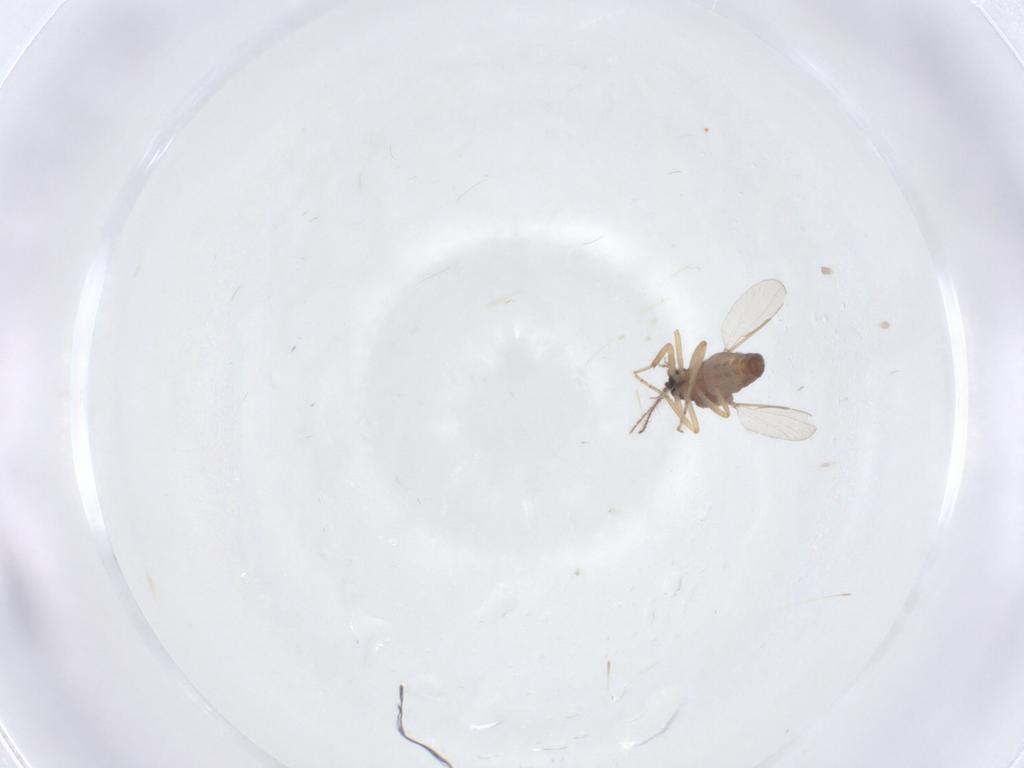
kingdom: Animalia
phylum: Arthropoda
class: Insecta
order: Diptera
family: Ceratopogonidae
